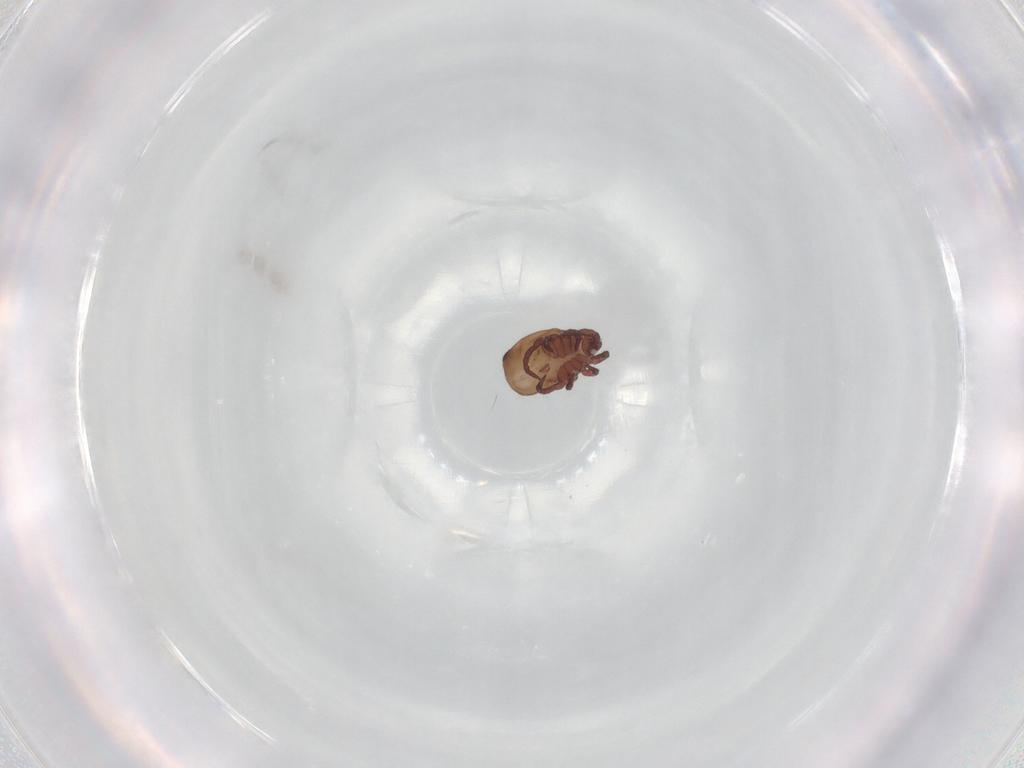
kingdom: Animalia
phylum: Arthropoda
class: Arachnida
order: Sarcoptiformes
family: Hermanniidae
